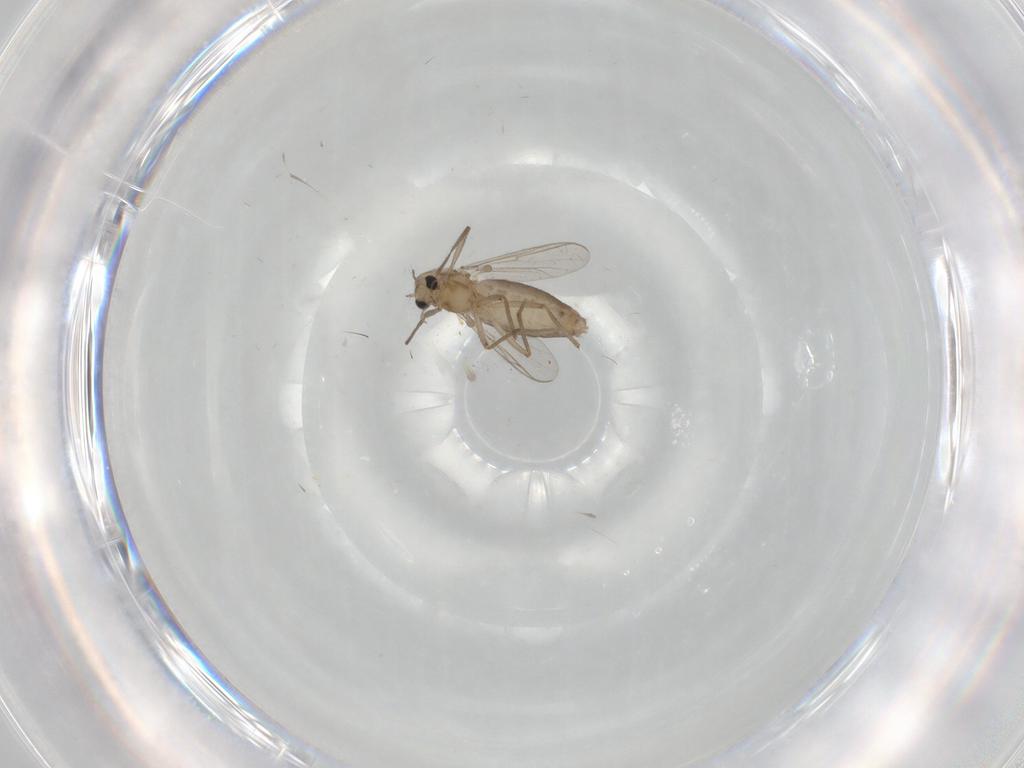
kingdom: Animalia
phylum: Arthropoda
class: Insecta
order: Diptera
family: Chironomidae
